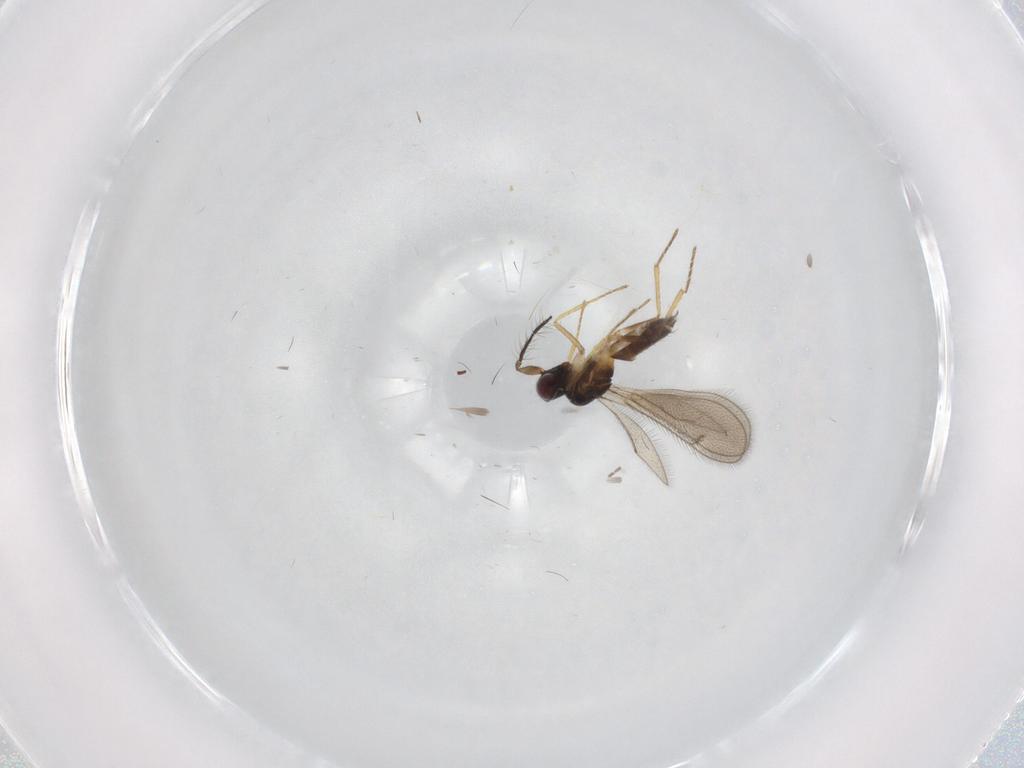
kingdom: Animalia
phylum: Arthropoda
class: Insecta
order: Hymenoptera
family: Eulophidae
